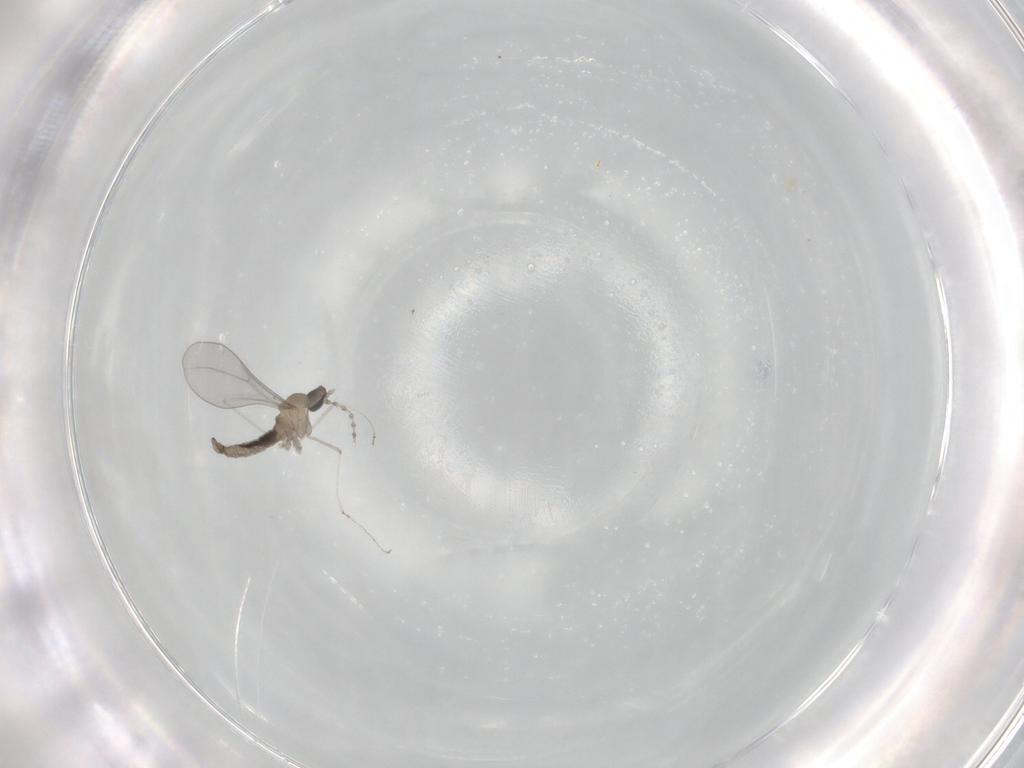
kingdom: Animalia
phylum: Arthropoda
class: Insecta
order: Diptera
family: Cecidomyiidae
